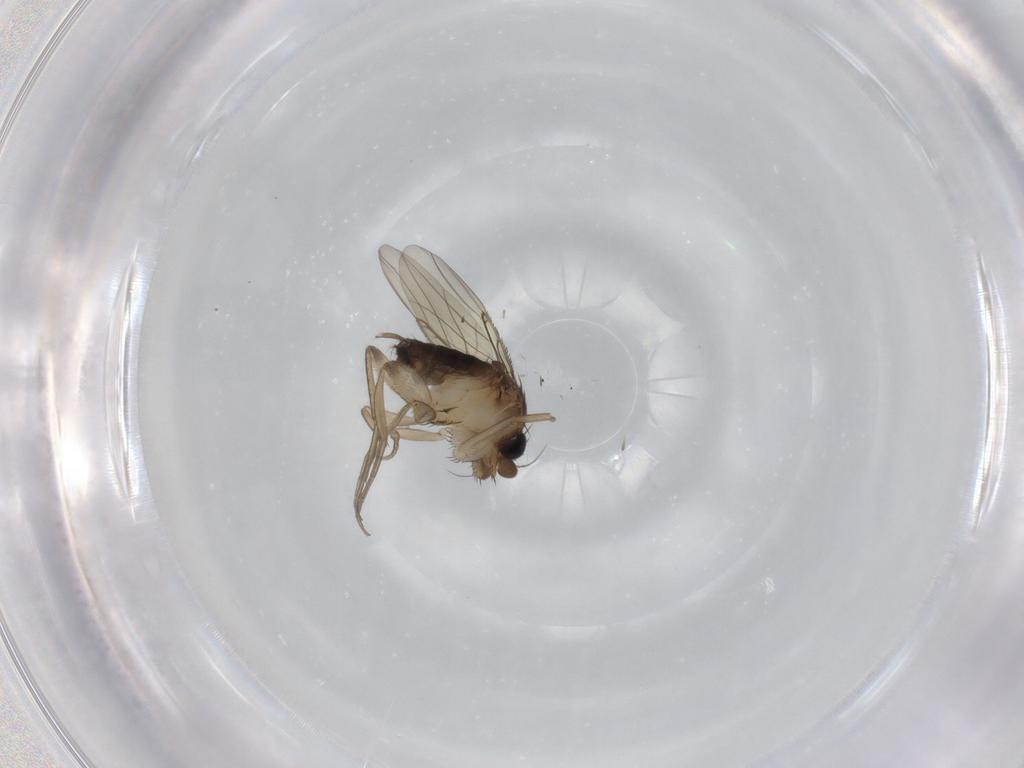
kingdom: Animalia
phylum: Arthropoda
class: Insecta
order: Diptera
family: Phoridae
